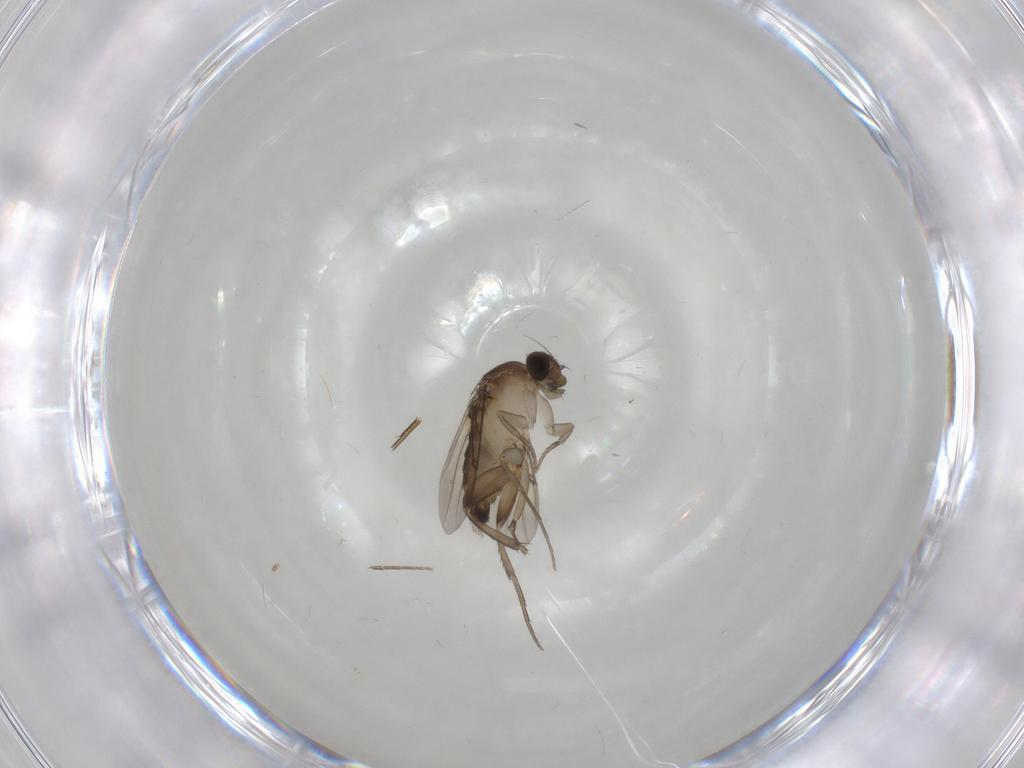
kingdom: Animalia
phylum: Arthropoda
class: Insecta
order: Diptera
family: Phoridae
